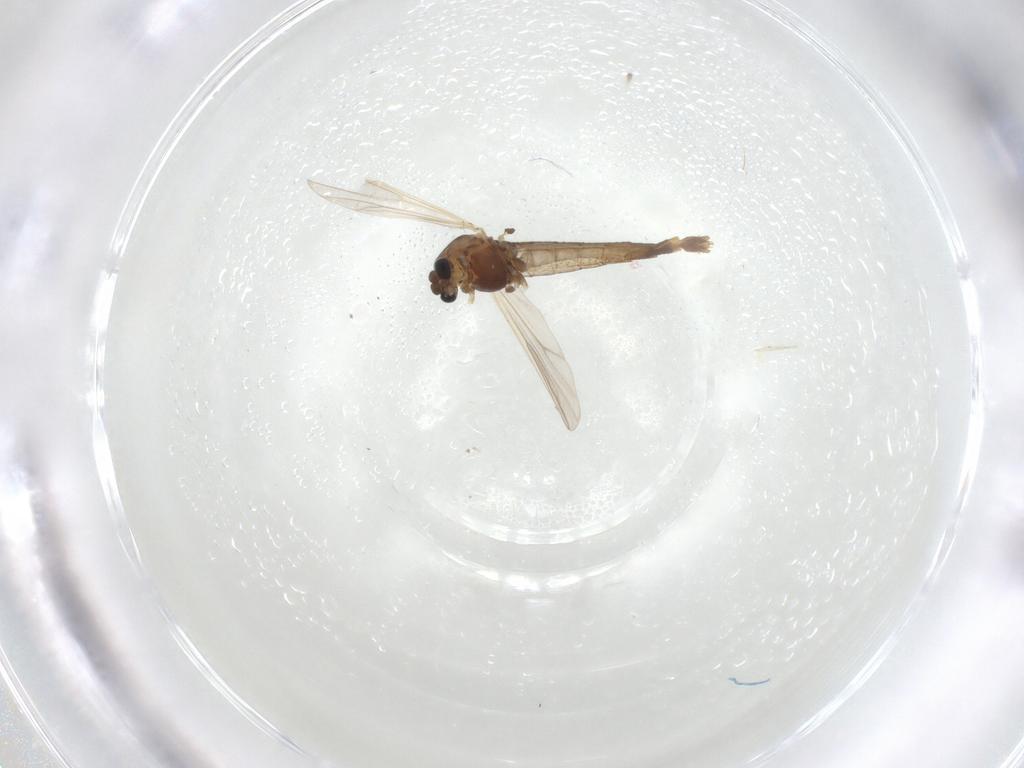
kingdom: Animalia
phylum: Arthropoda
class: Insecta
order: Diptera
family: Chironomidae
